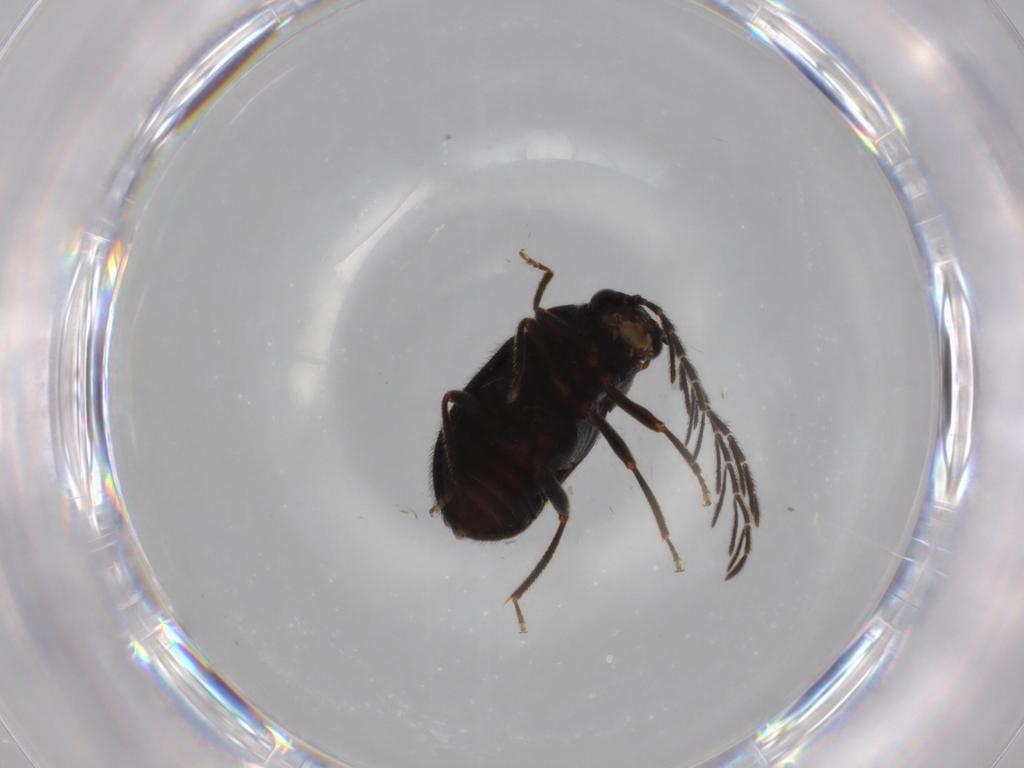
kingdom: Animalia
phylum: Arthropoda
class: Insecta
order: Coleoptera
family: Ptilodactylidae
